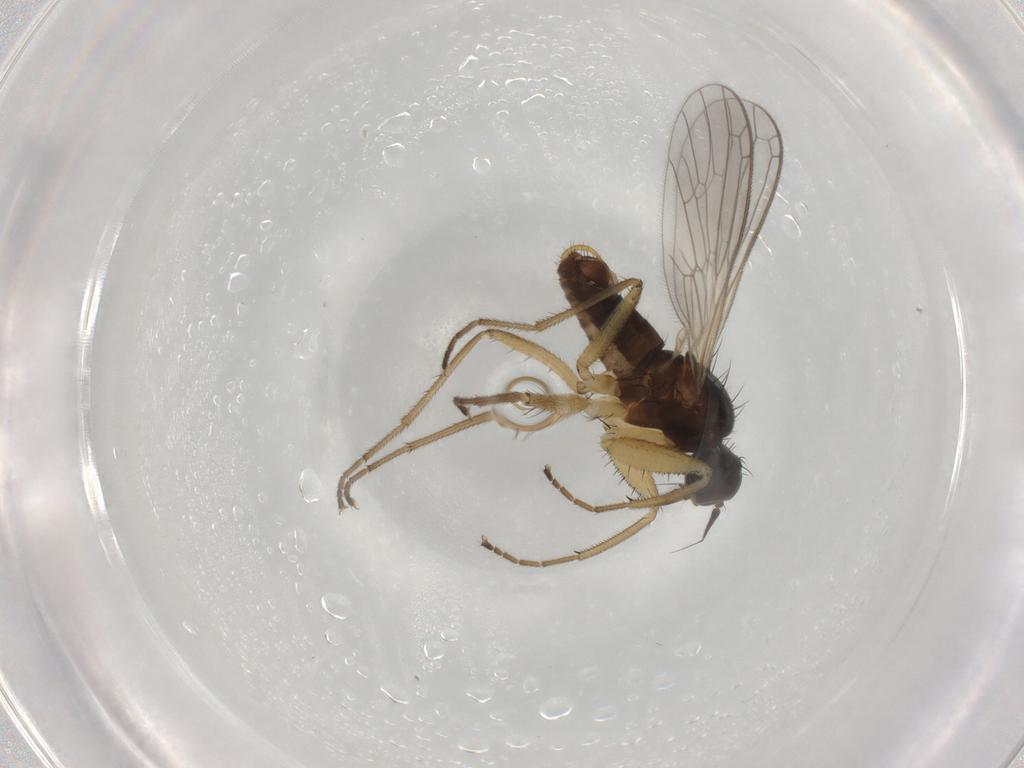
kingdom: Animalia
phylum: Arthropoda
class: Insecta
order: Diptera
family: Empididae
